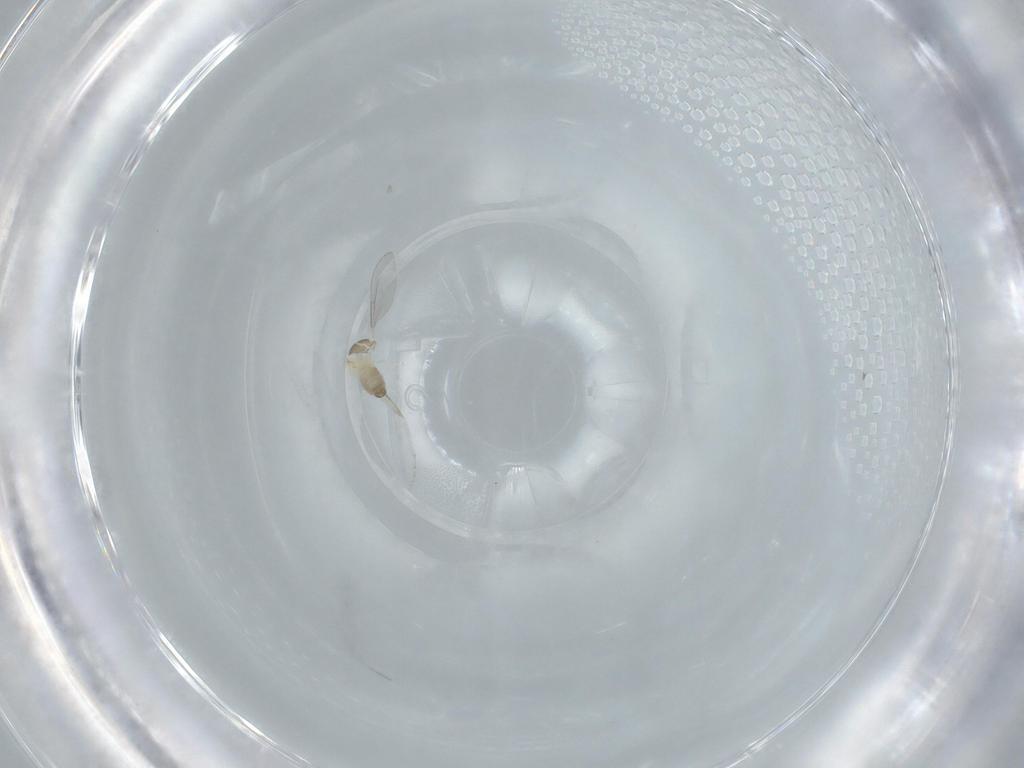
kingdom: Animalia
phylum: Arthropoda
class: Insecta
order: Diptera
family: Cecidomyiidae
